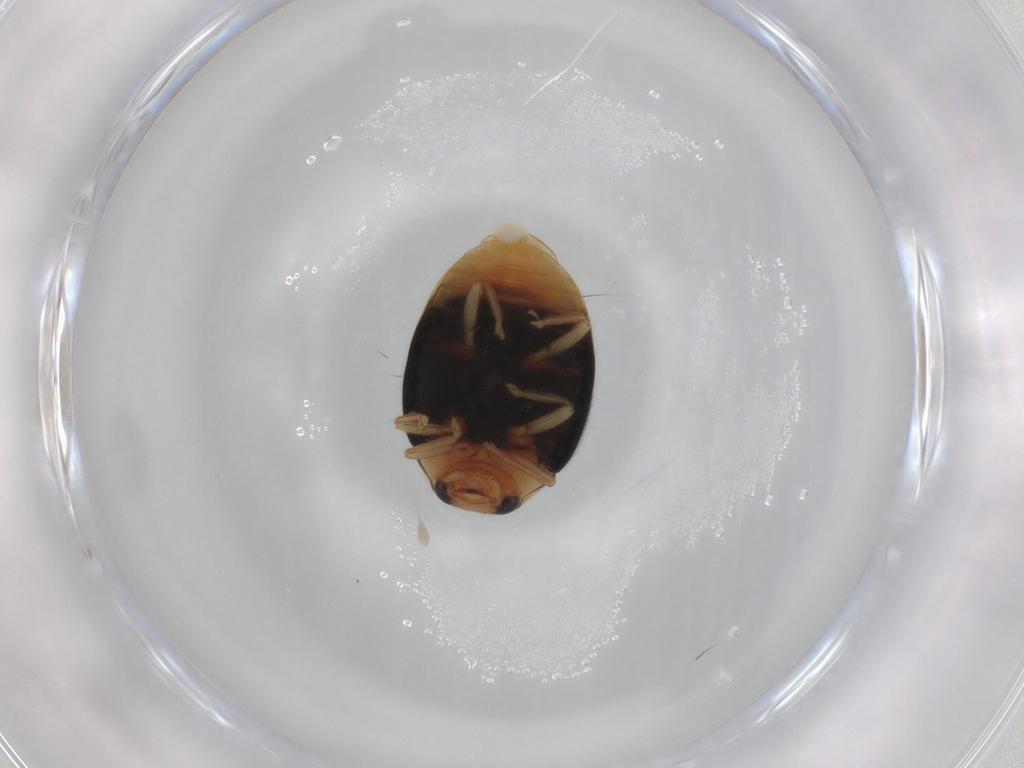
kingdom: Animalia
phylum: Arthropoda
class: Insecta
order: Coleoptera
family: Coccinellidae
